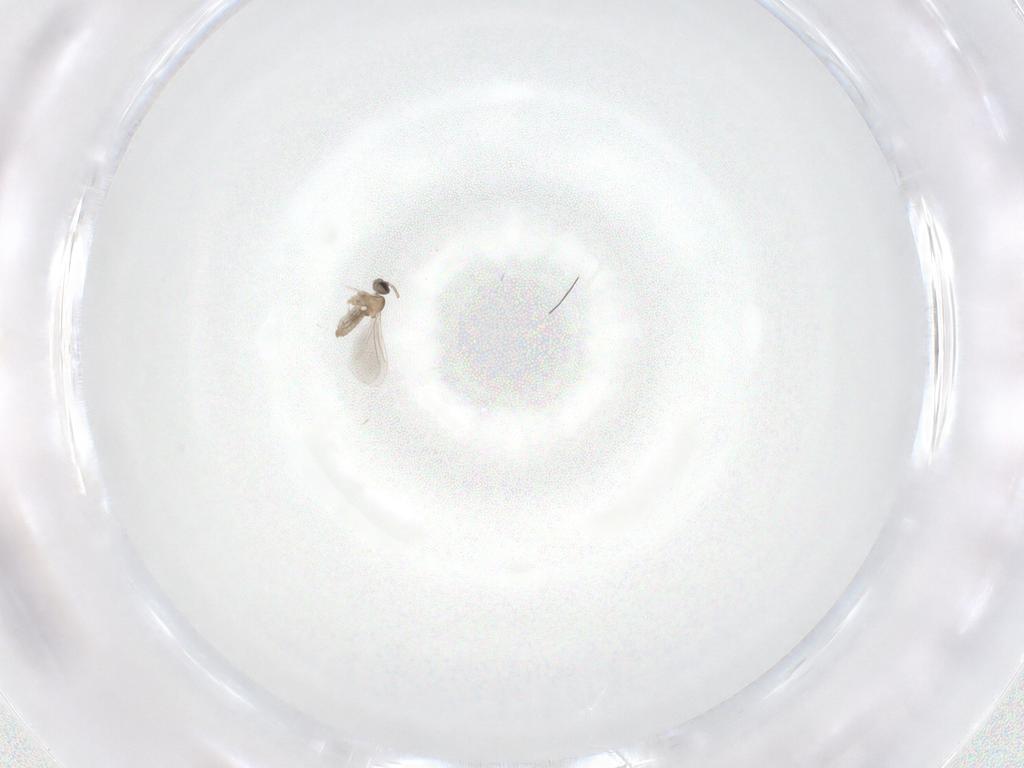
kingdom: Animalia
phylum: Arthropoda
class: Insecta
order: Diptera
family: Cecidomyiidae
